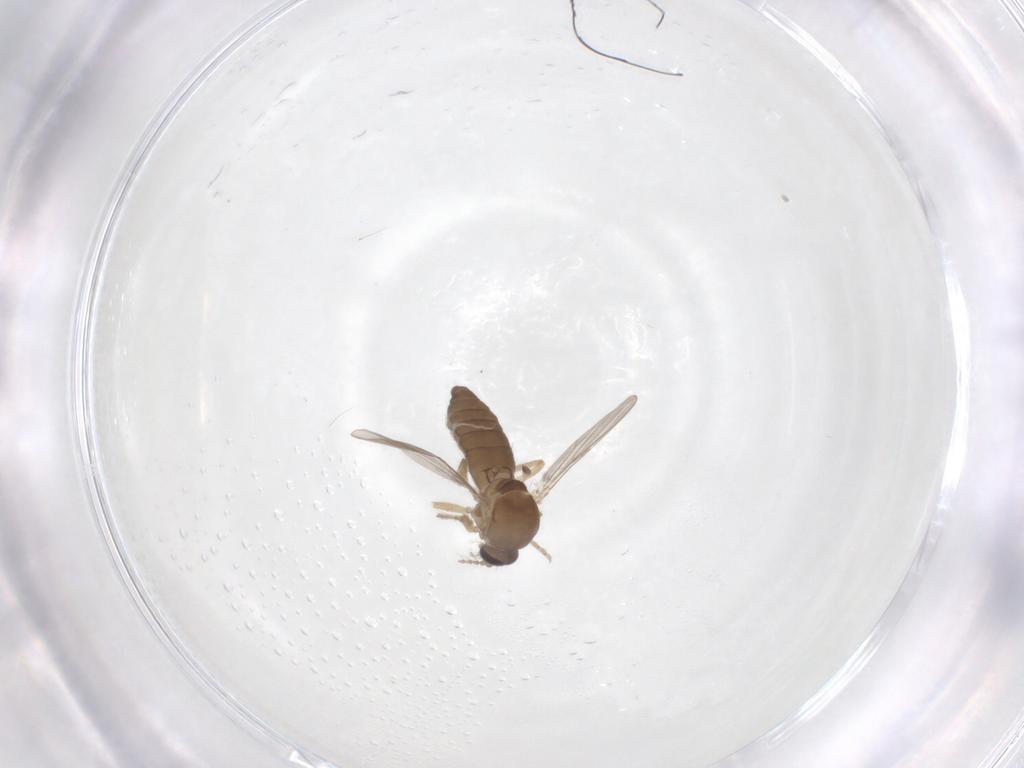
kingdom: Animalia
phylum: Arthropoda
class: Insecta
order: Diptera
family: Ceratopogonidae
